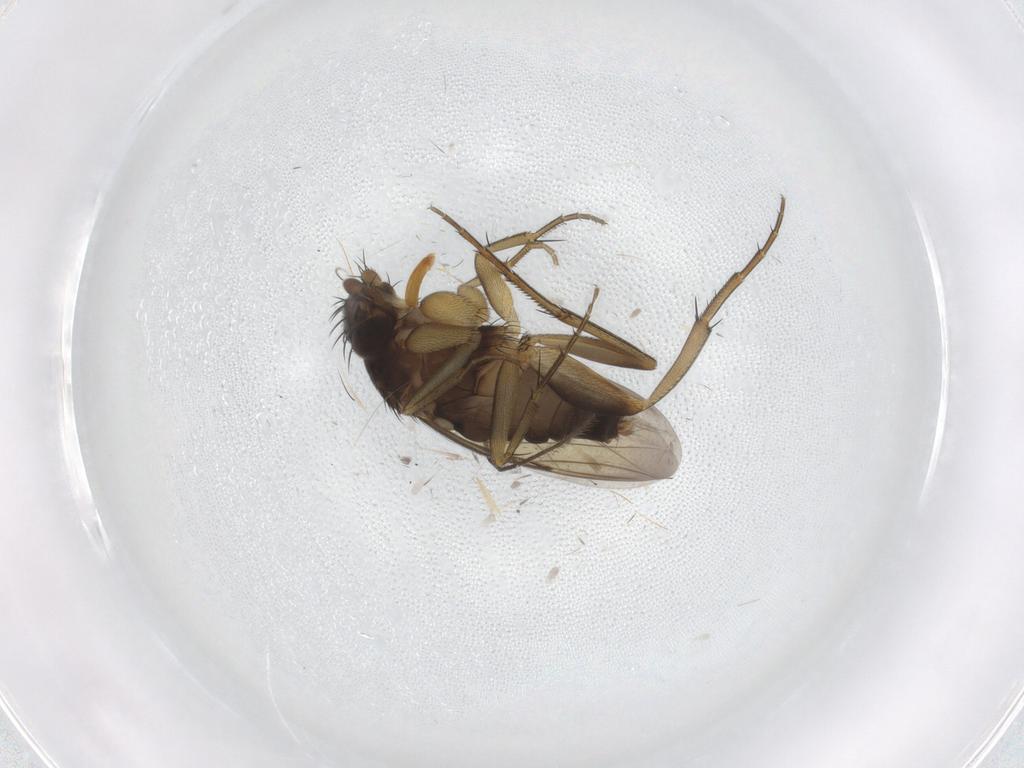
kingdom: Animalia
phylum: Arthropoda
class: Insecta
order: Diptera
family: Cecidomyiidae
